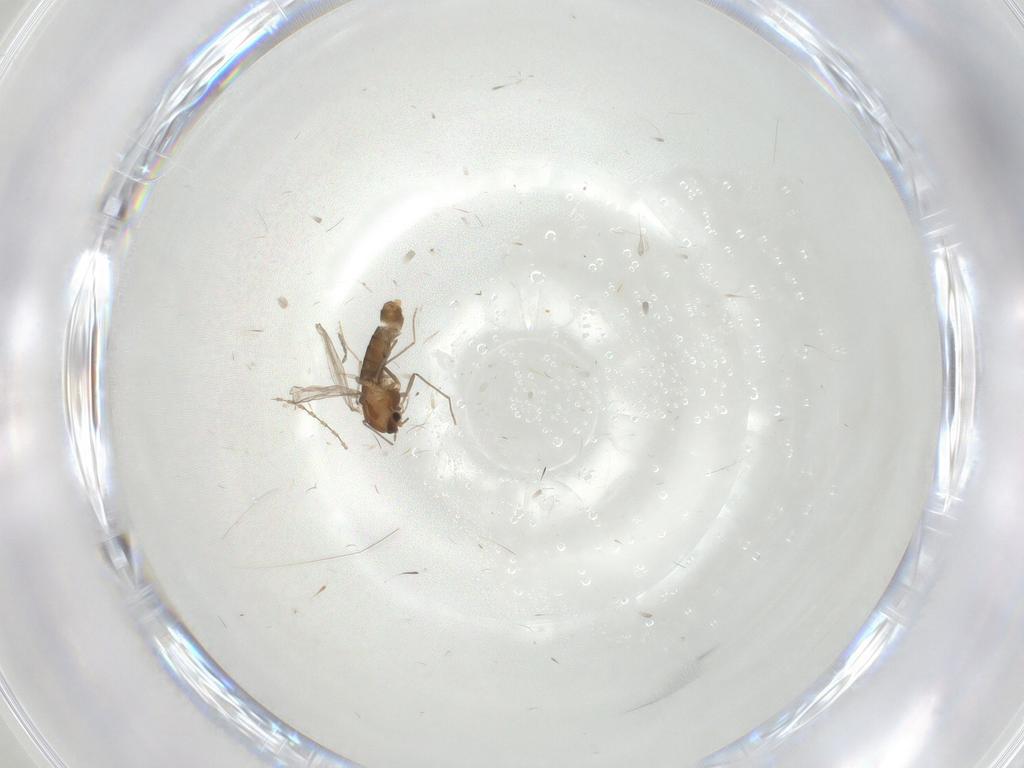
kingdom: Animalia
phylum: Arthropoda
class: Insecta
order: Diptera
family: Chironomidae
